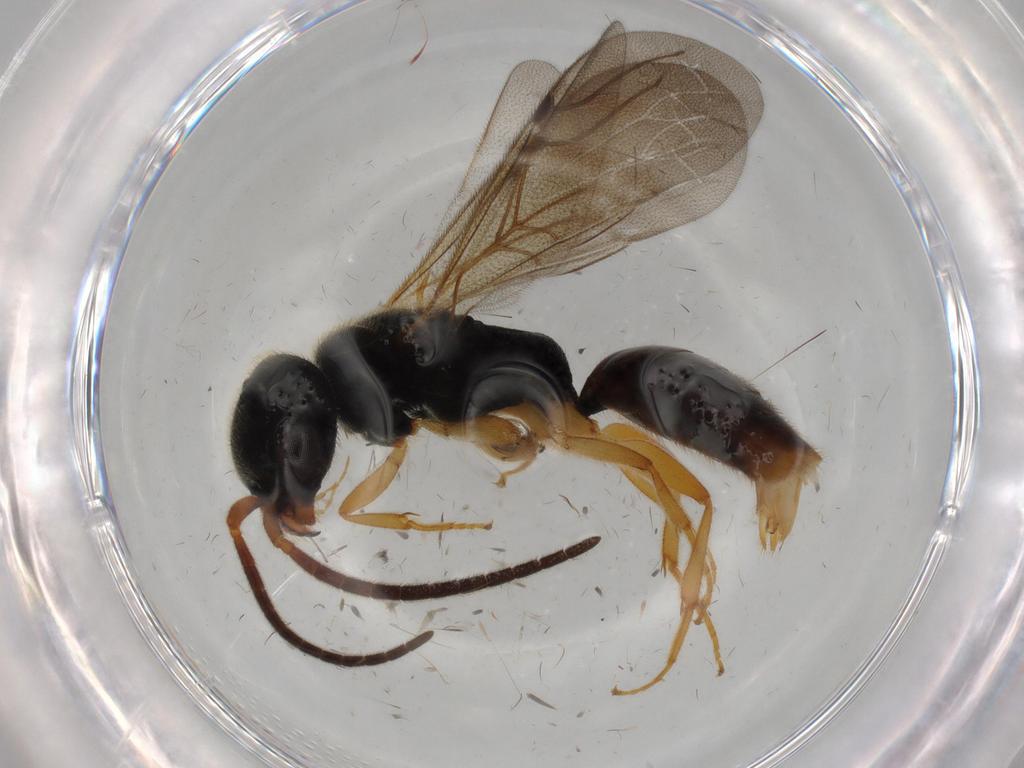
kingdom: Animalia
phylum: Arthropoda
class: Insecta
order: Hymenoptera
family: Bethylidae
